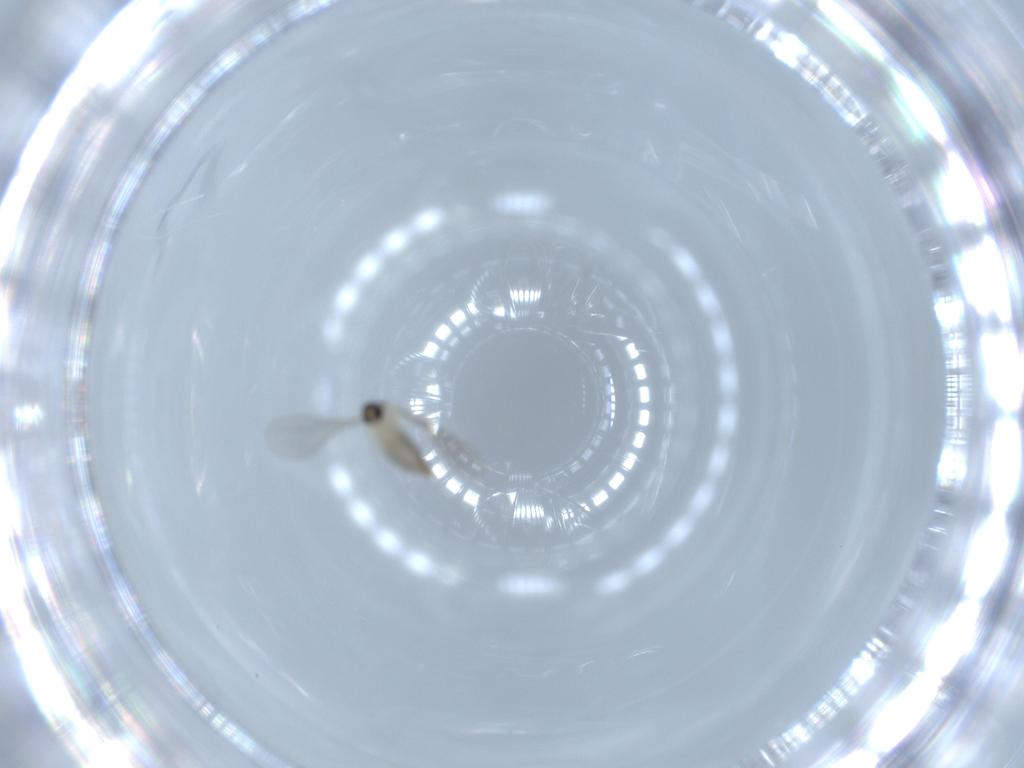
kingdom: Animalia
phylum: Arthropoda
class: Insecta
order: Diptera
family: Cecidomyiidae
